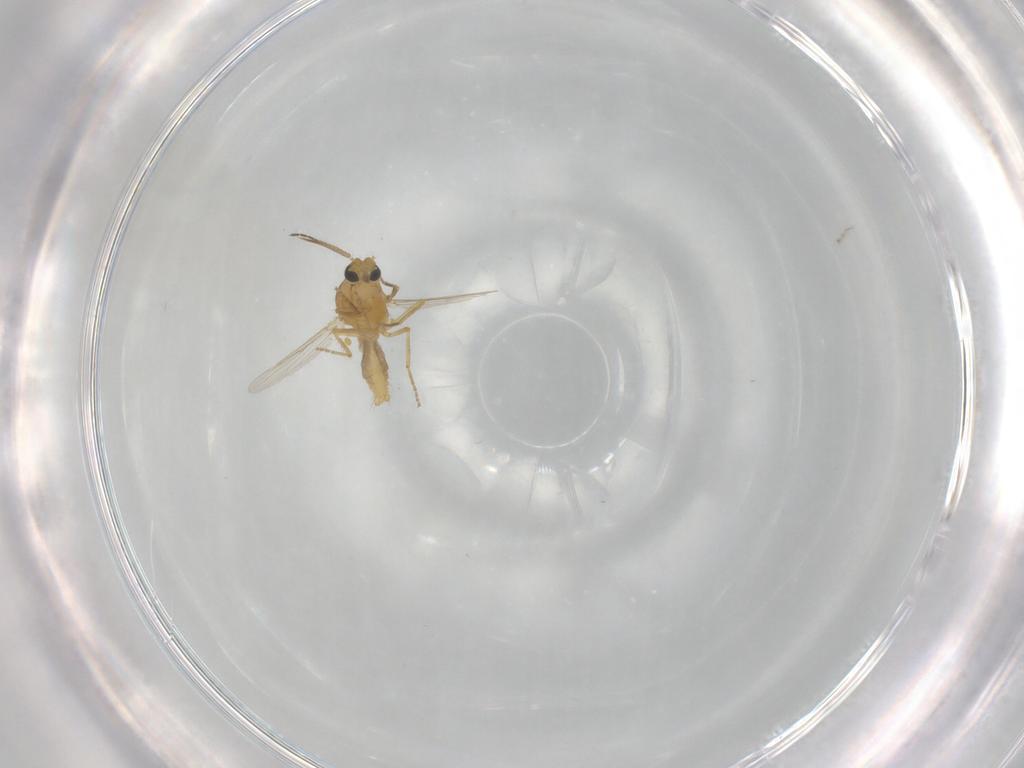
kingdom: Animalia
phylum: Arthropoda
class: Insecta
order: Diptera
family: Ceratopogonidae
